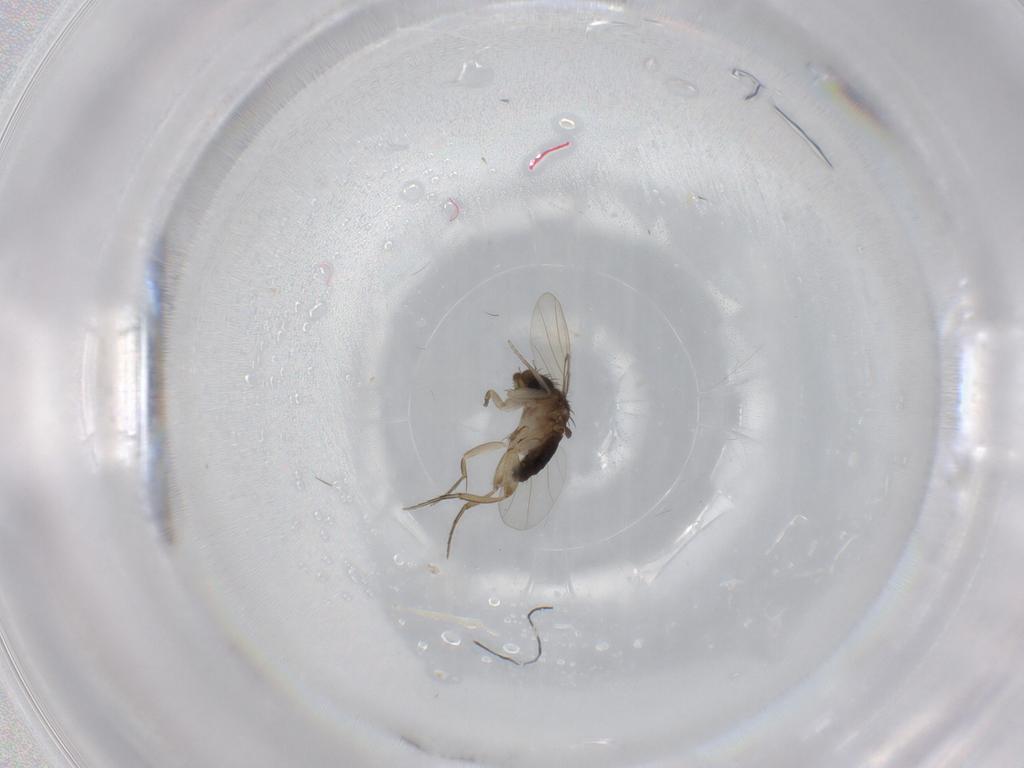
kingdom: Animalia
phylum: Arthropoda
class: Insecta
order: Diptera
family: Phoridae
